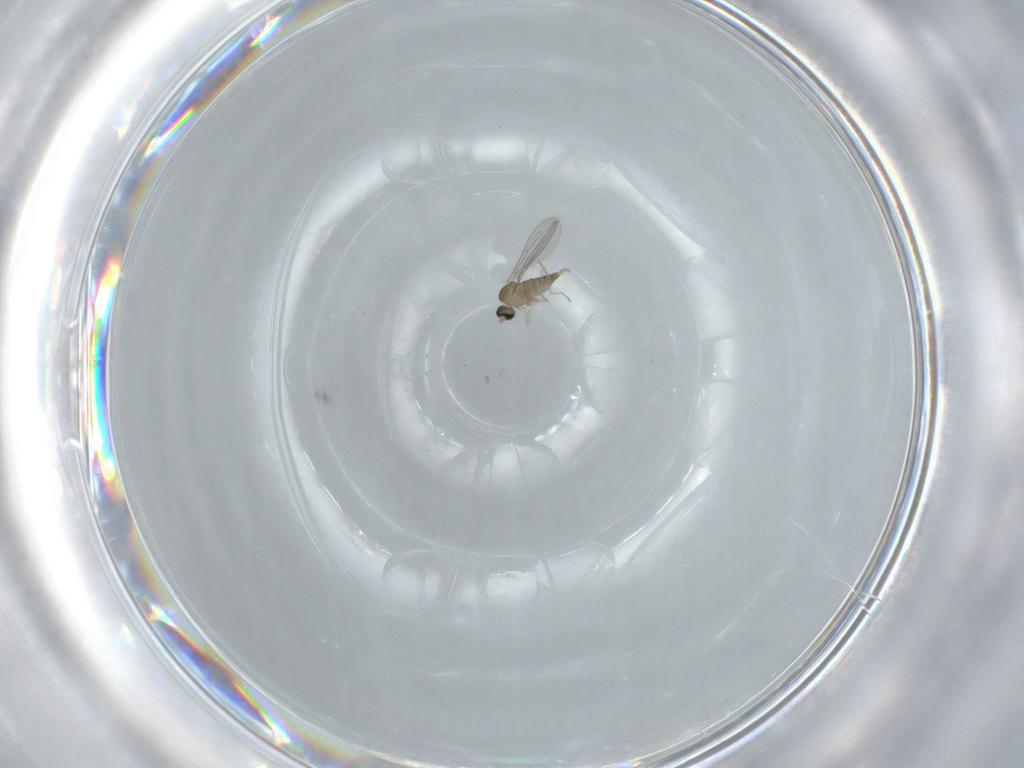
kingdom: Animalia
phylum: Arthropoda
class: Insecta
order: Diptera
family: Cecidomyiidae
